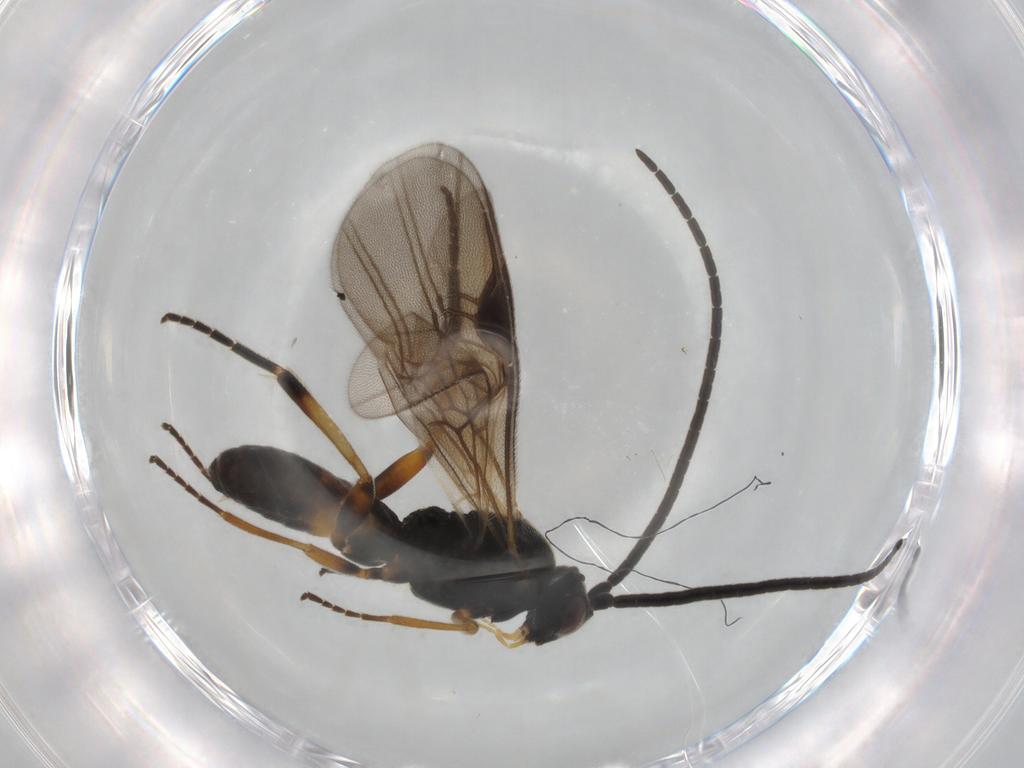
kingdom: Animalia
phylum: Arthropoda
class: Insecta
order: Hymenoptera
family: Braconidae
